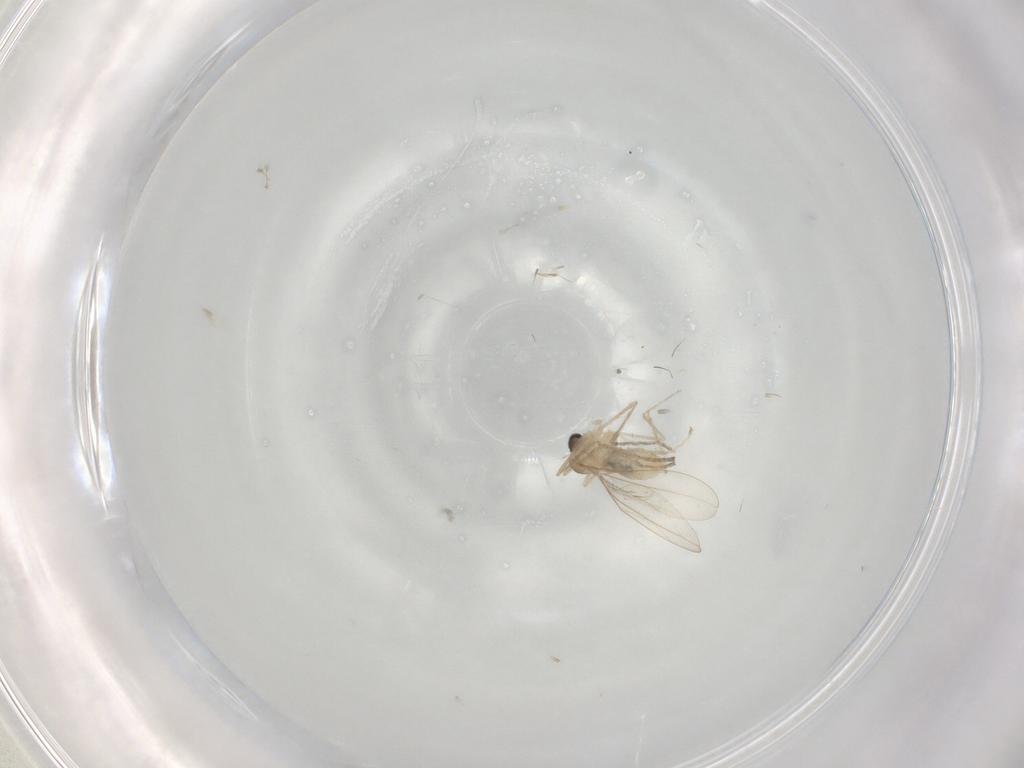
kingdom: Animalia
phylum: Arthropoda
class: Insecta
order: Diptera
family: Cecidomyiidae
